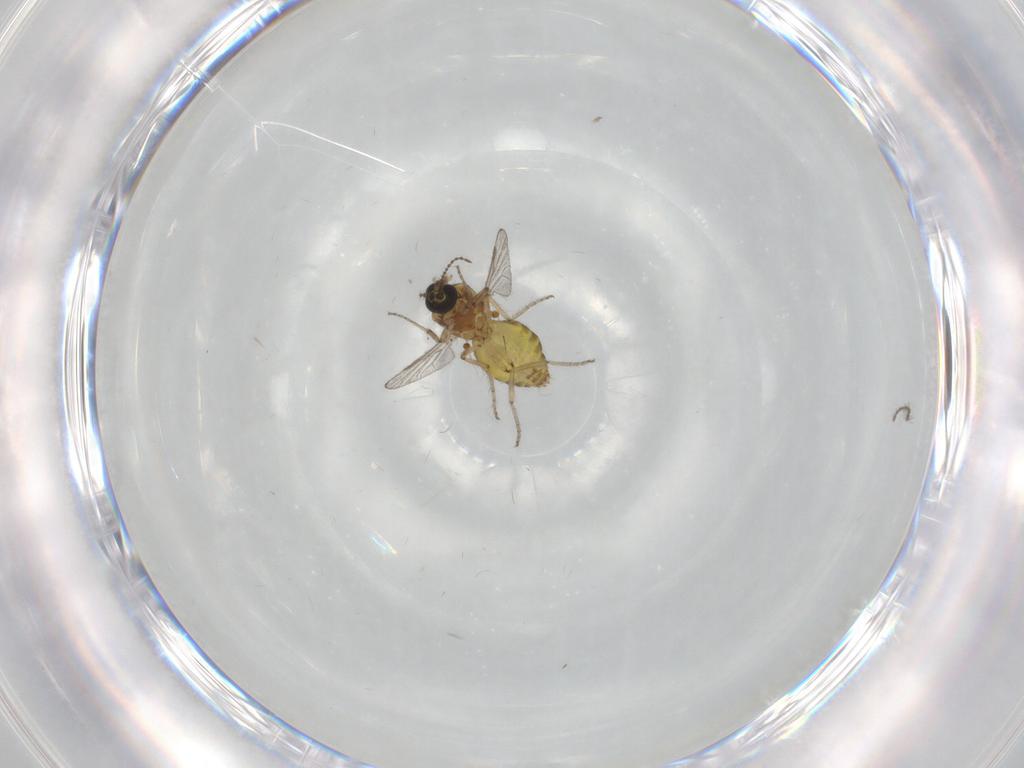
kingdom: Animalia
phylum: Arthropoda
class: Insecta
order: Diptera
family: Ceratopogonidae
